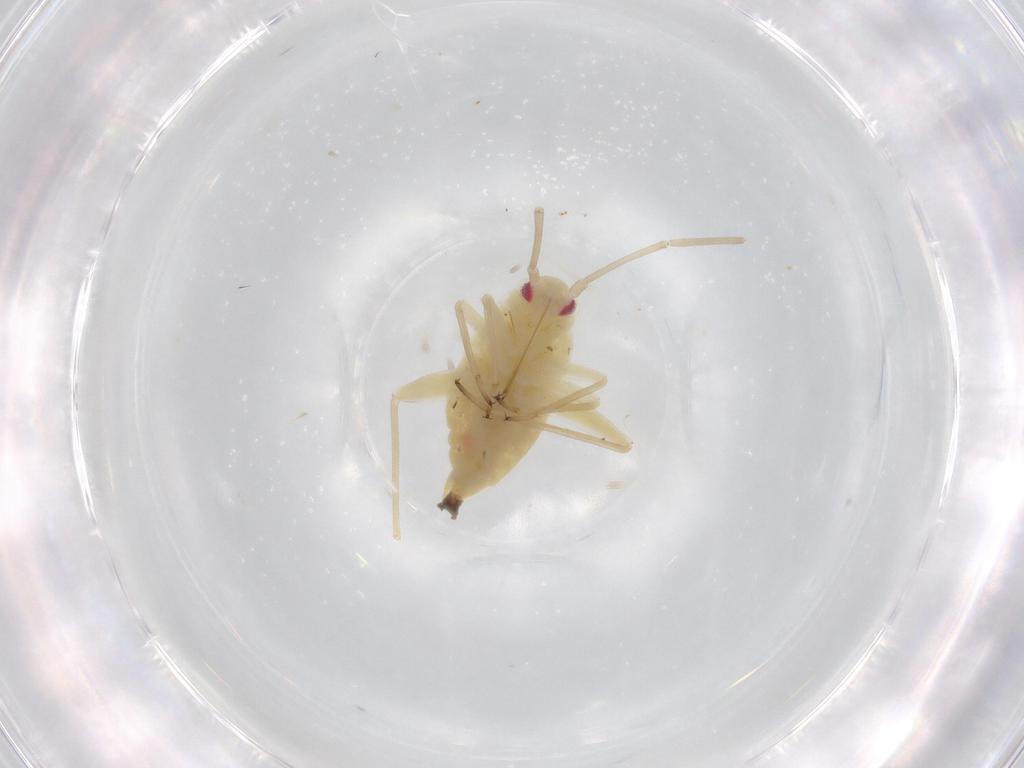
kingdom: Animalia
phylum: Arthropoda
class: Insecta
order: Hemiptera
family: Miridae
